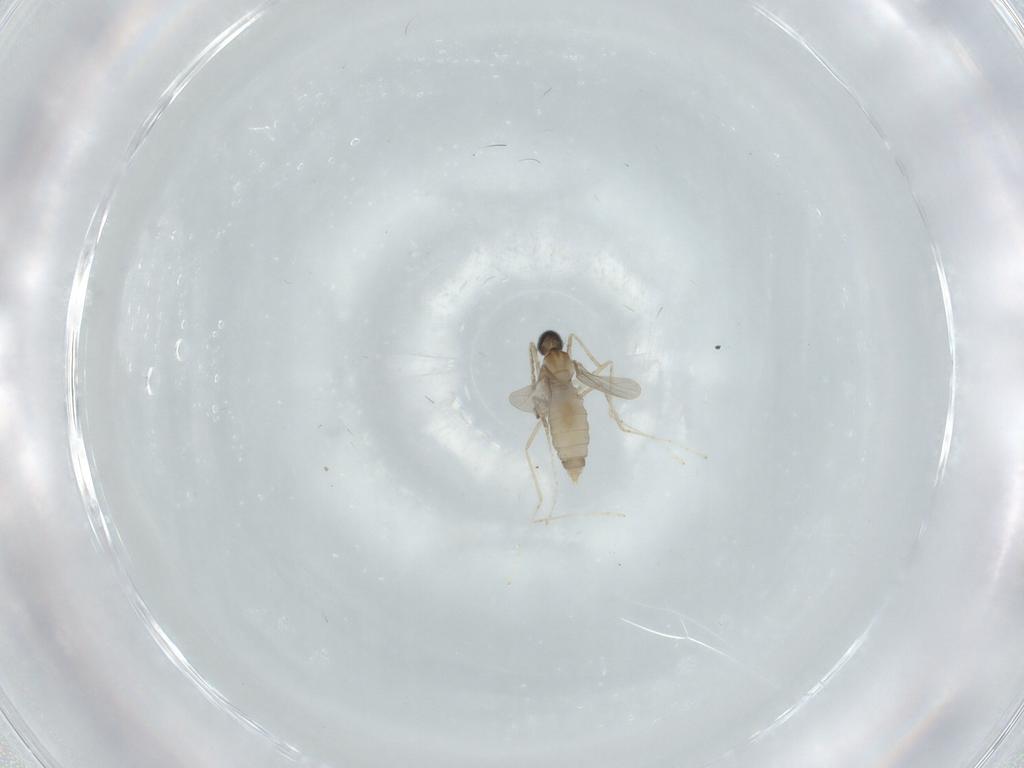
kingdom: Animalia
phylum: Arthropoda
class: Insecta
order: Diptera
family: Cecidomyiidae
